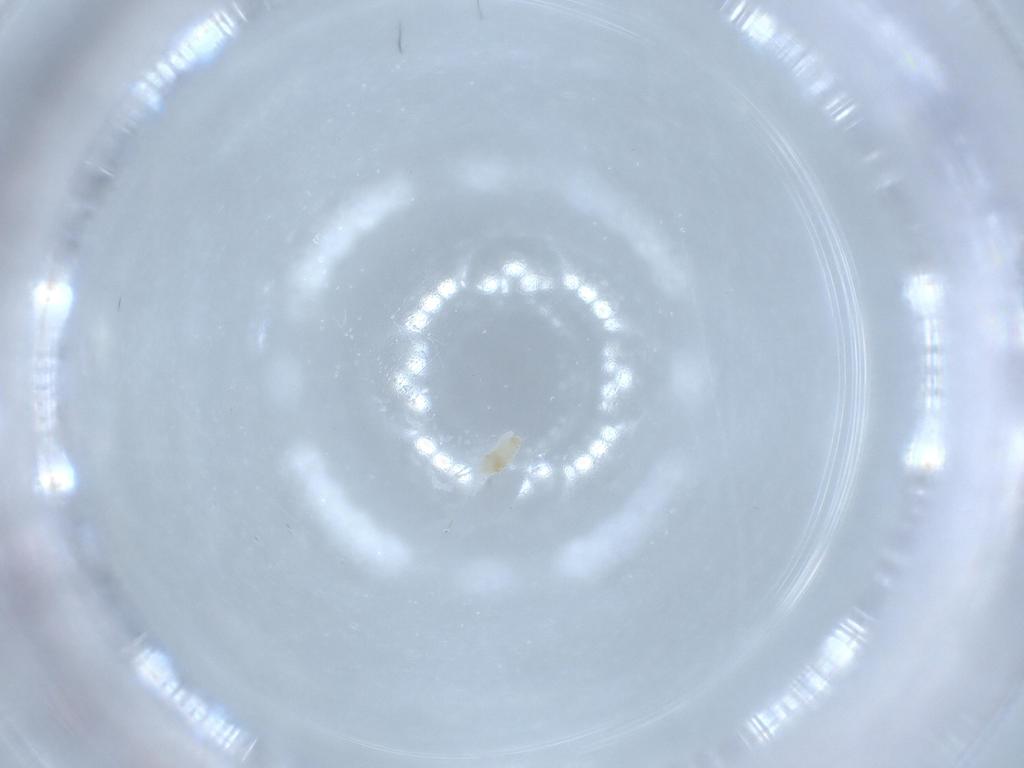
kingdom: Animalia
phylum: Arthropoda
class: Arachnida
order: Trombidiformes
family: Eupodidae
